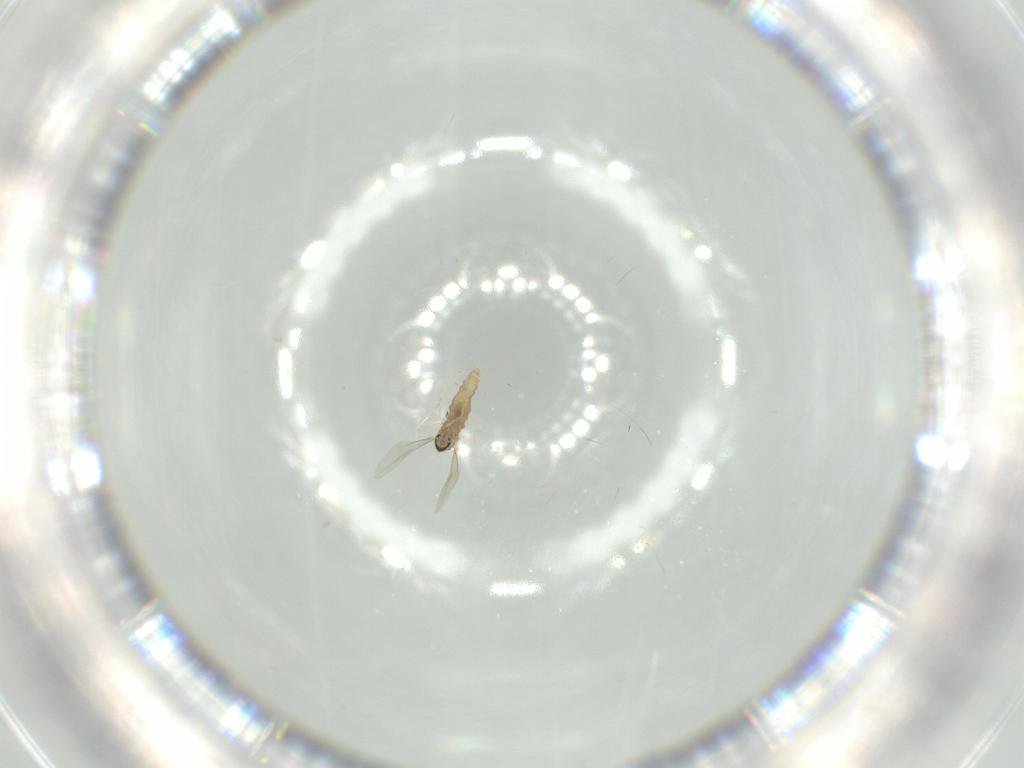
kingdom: Animalia
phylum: Arthropoda
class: Insecta
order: Diptera
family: Cecidomyiidae
